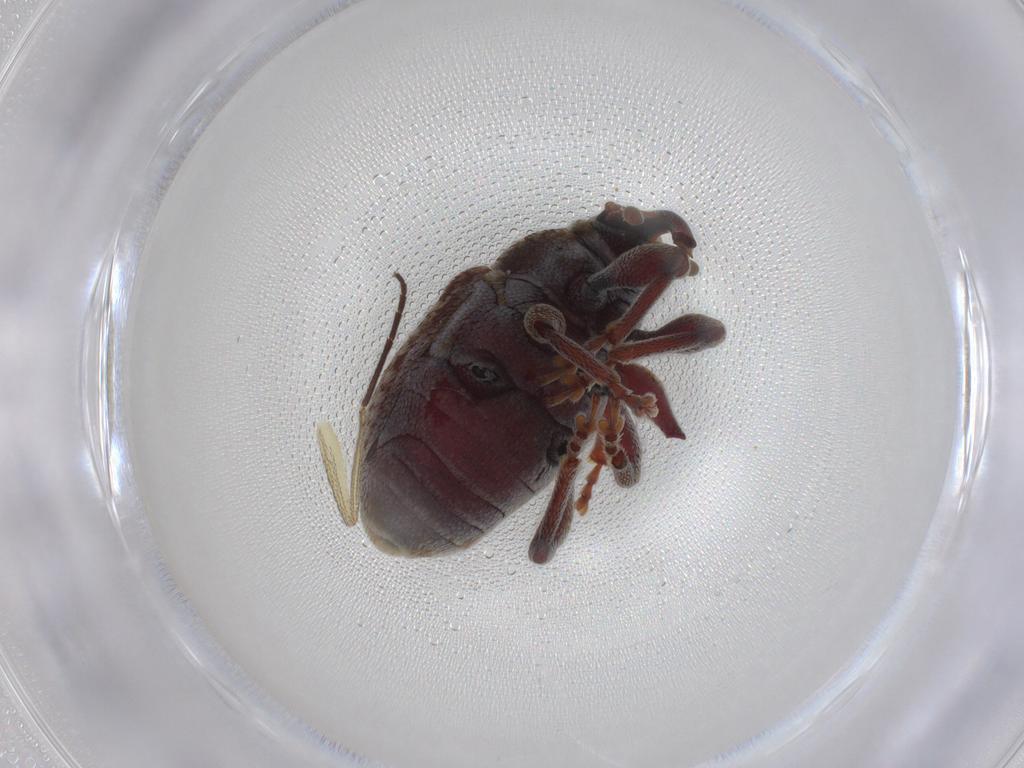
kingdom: Animalia
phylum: Arthropoda
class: Insecta
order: Coleoptera
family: Curculionidae
